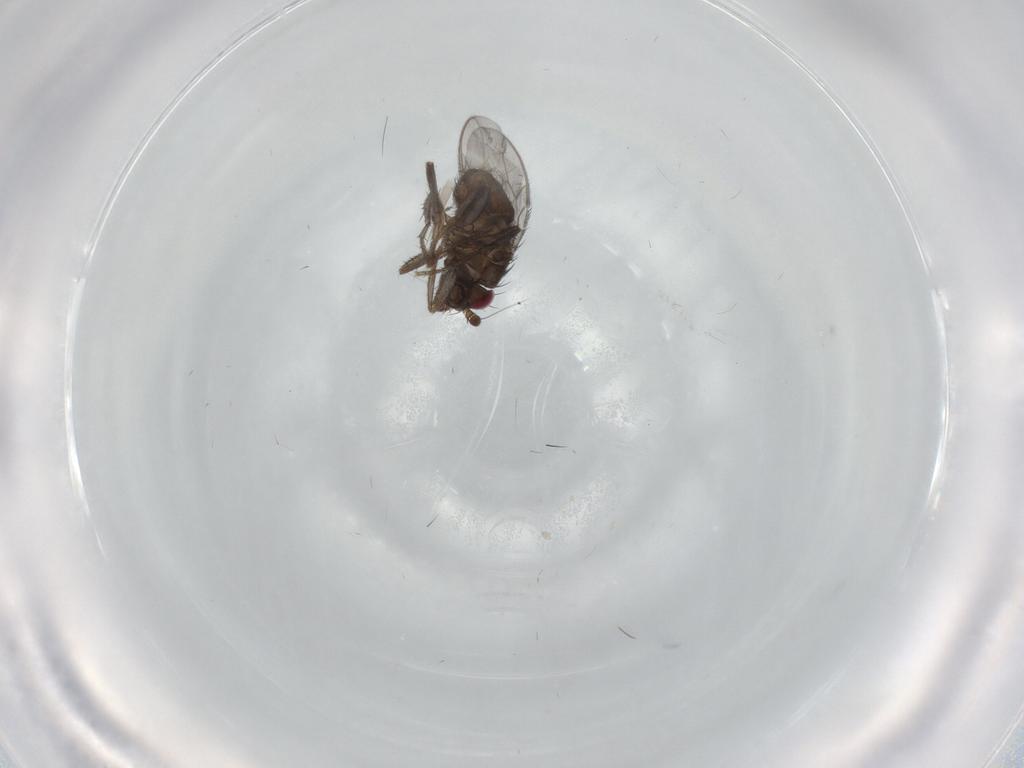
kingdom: Animalia
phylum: Arthropoda
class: Insecta
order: Diptera
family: Sphaeroceridae
